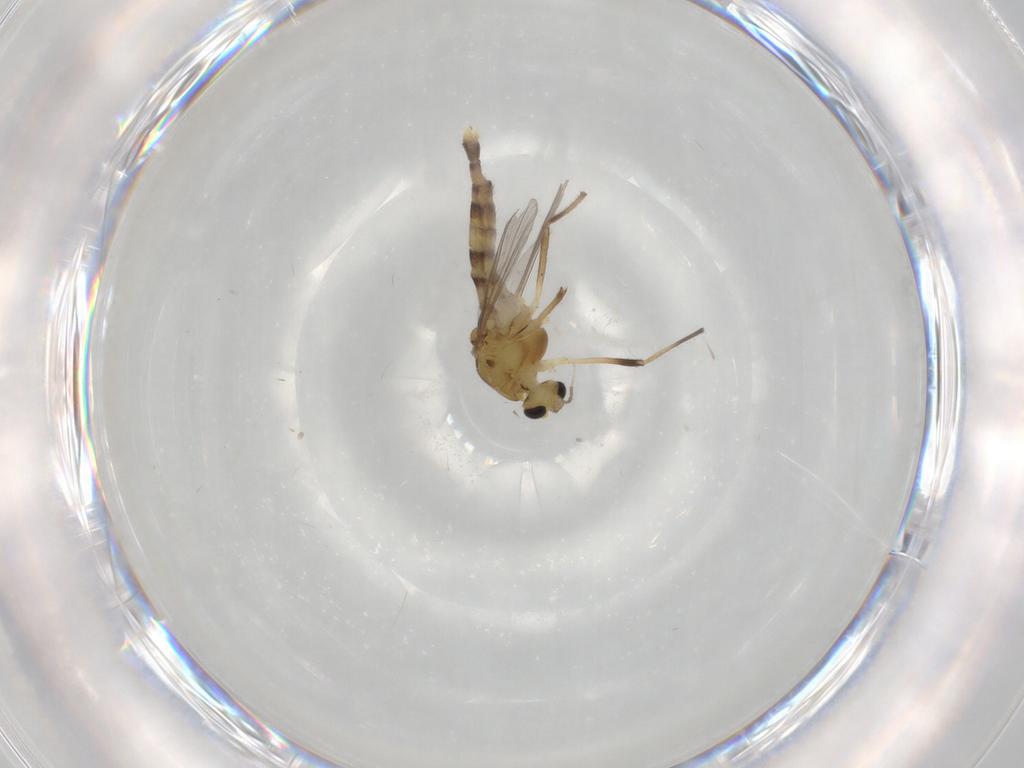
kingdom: Animalia
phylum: Arthropoda
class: Insecta
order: Diptera
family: Chironomidae
